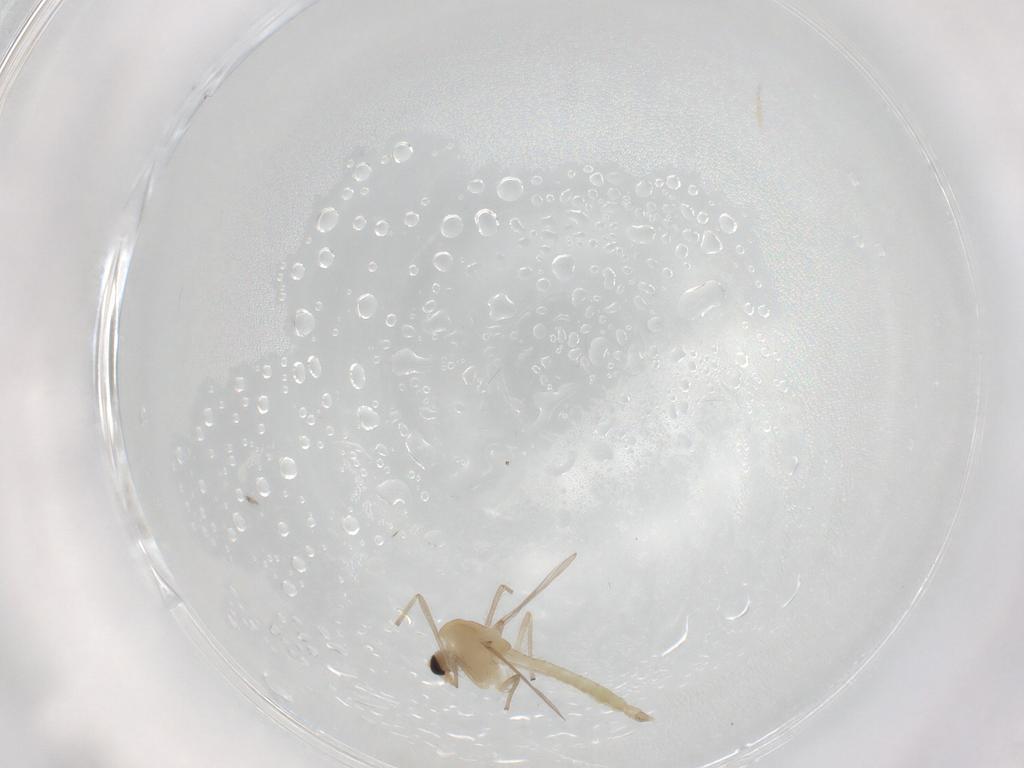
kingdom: Animalia
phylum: Arthropoda
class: Insecta
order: Diptera
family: Chironomidae
